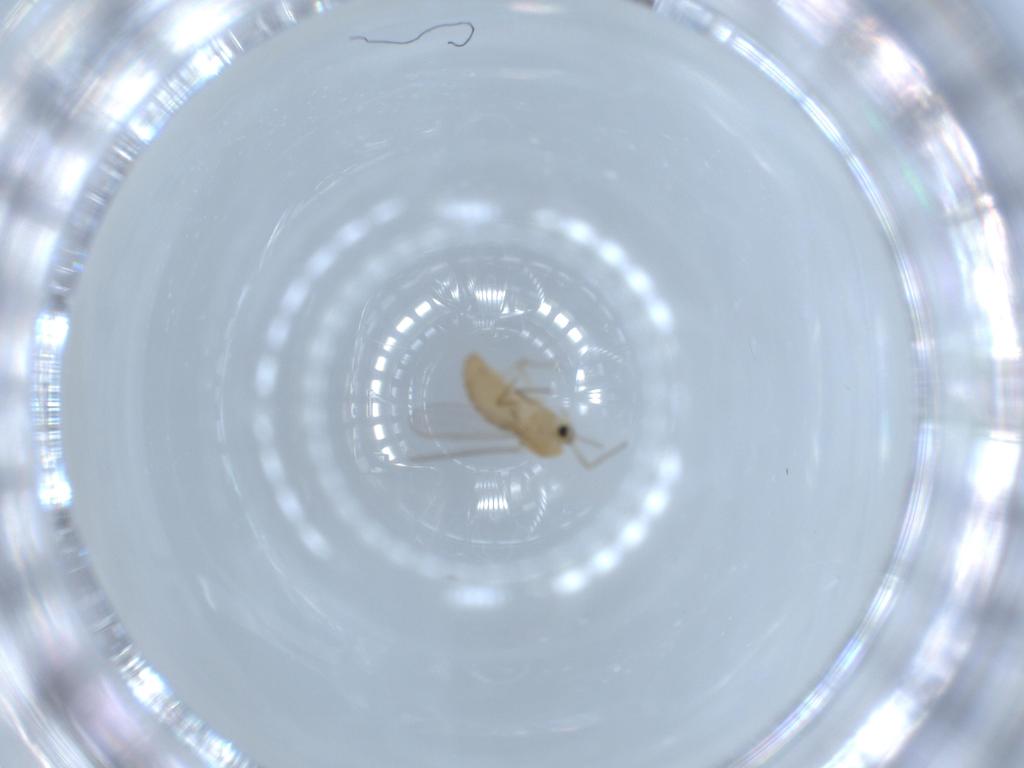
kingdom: Animalia
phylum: Arthropoda
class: Insecta
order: Diptera
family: Chironomidae
